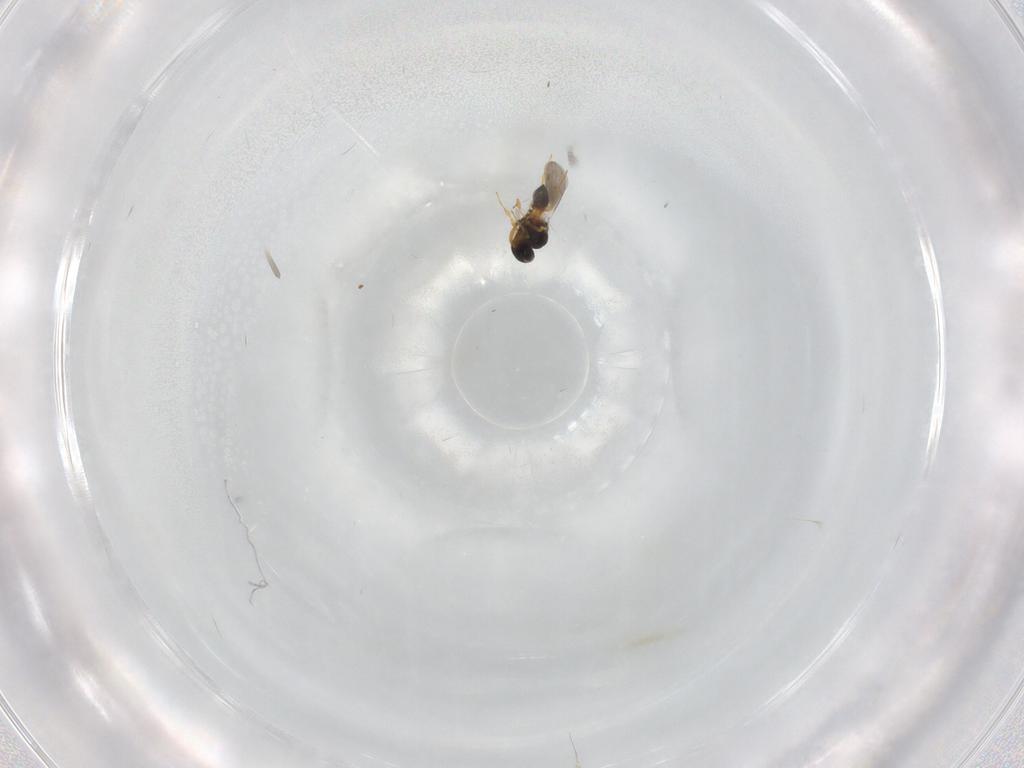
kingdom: Animalia
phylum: Arthropoda
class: Insecta
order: Hymenoptera
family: Platygastridae
